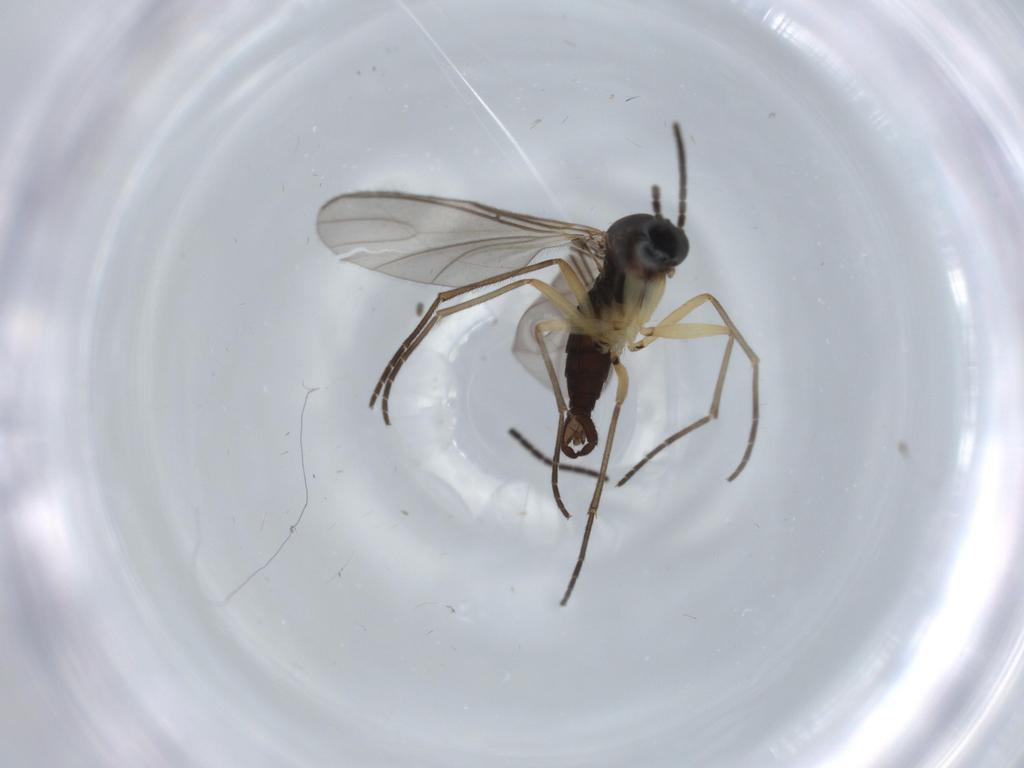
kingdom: Animalia
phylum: Arthropoda
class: Insecta
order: Diptera
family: Sciaridae
